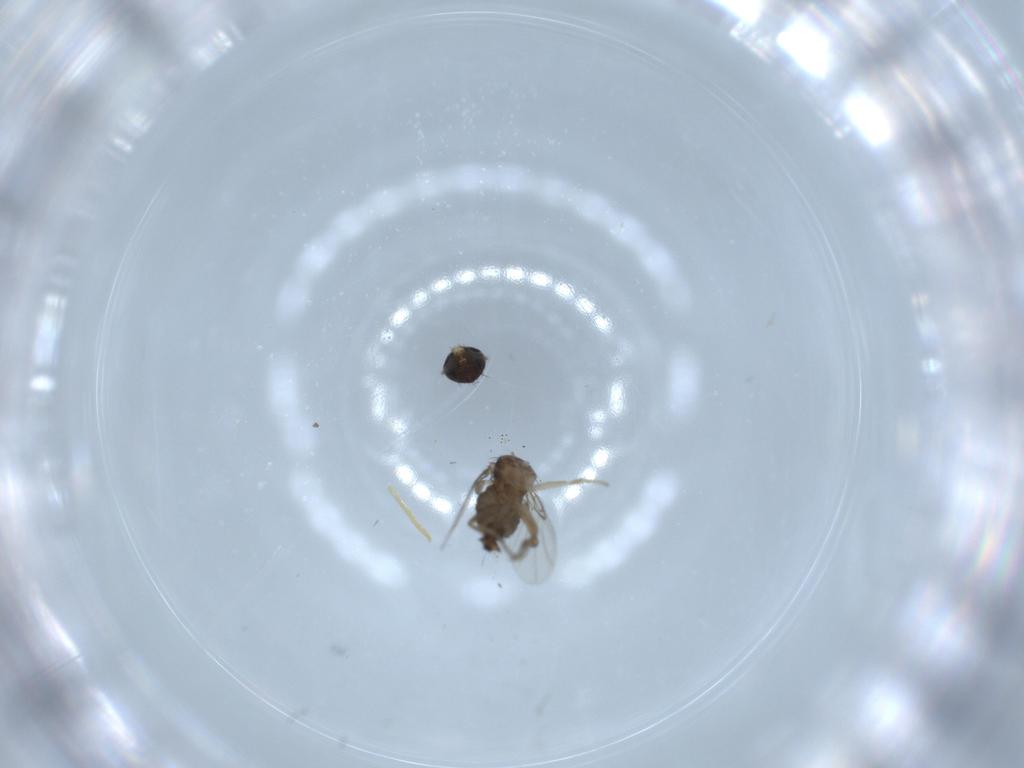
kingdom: Animalia
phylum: Arthropoda
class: Insecta
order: Diptera
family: Phoridae
